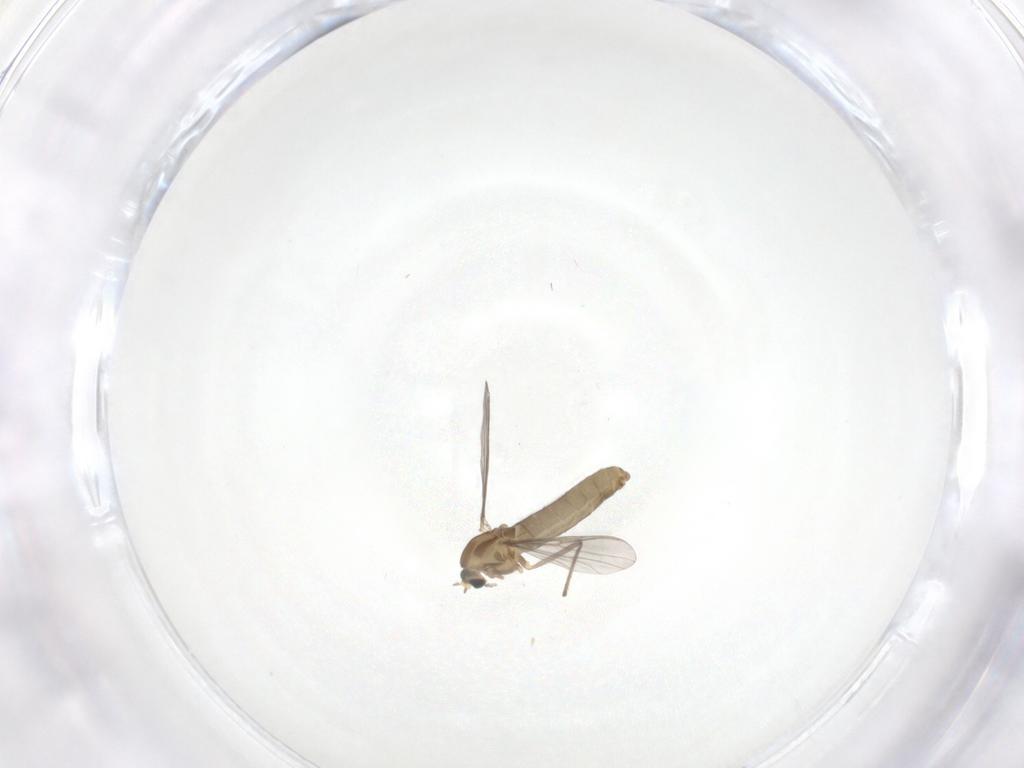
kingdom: Animalia
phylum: Arthropoda
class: Insecta
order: Diptera
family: Chironomidae
